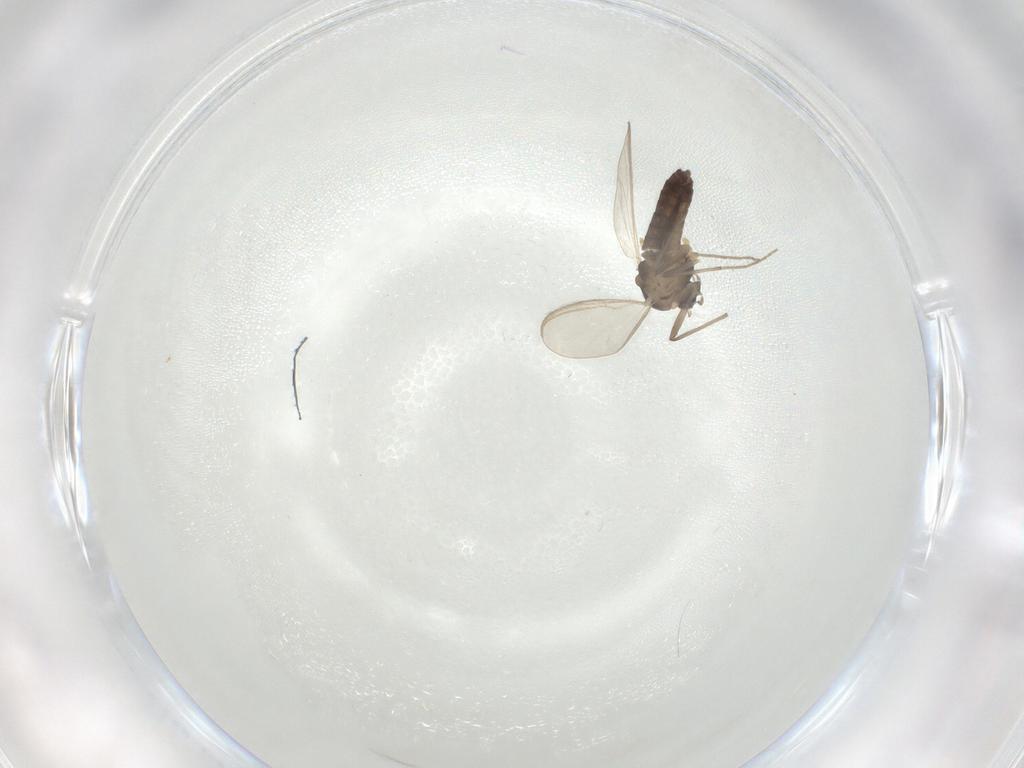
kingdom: Animalia
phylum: Arthropoda
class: Insecta
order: Diptera
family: Chironomidae
